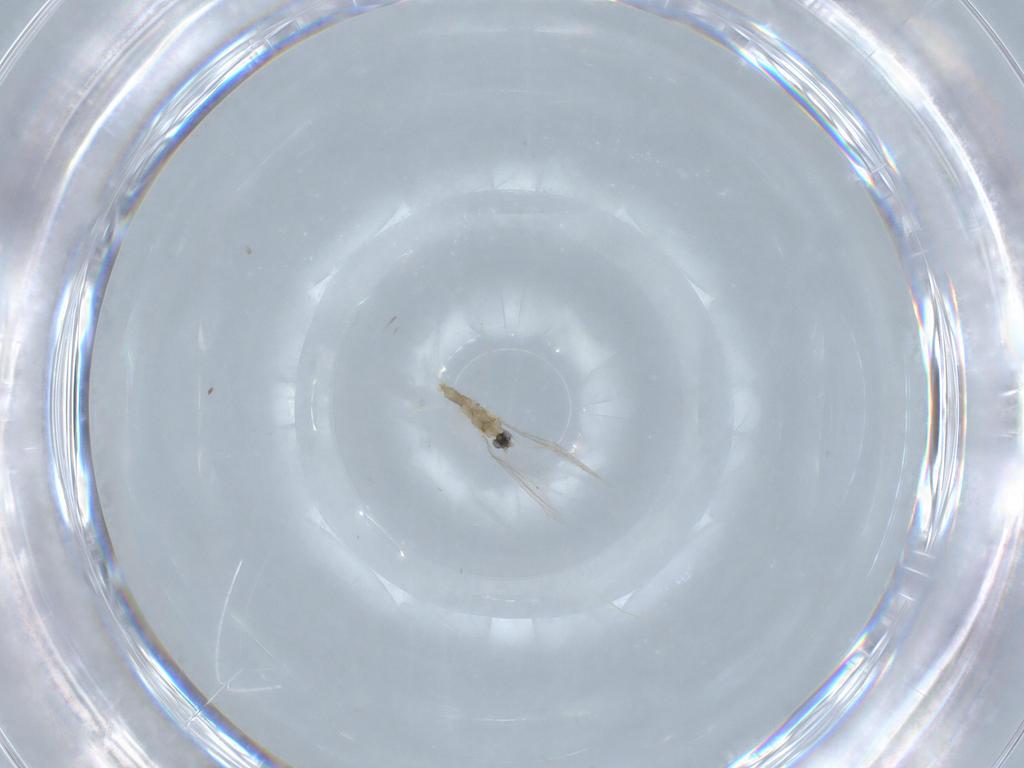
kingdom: Animalia
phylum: Arthropoda
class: Insecta
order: Diptera
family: Cecidomyiidae
